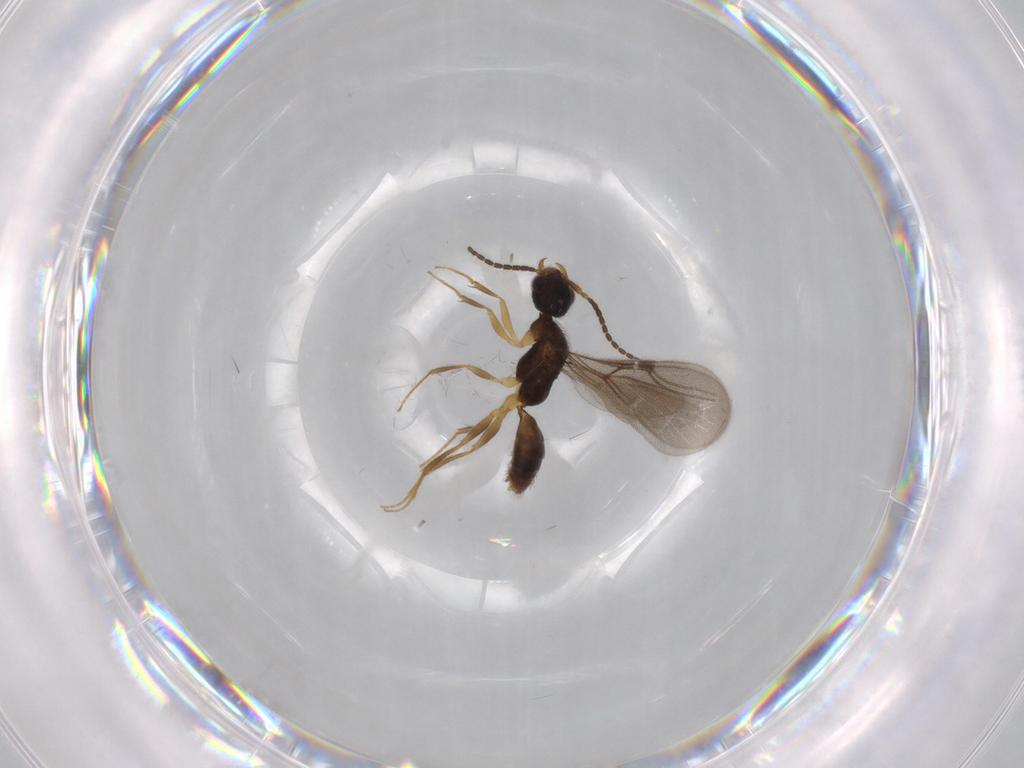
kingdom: Animalia
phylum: Arthropoda
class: Insecta
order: Hymenoptera
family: Bethylidae
